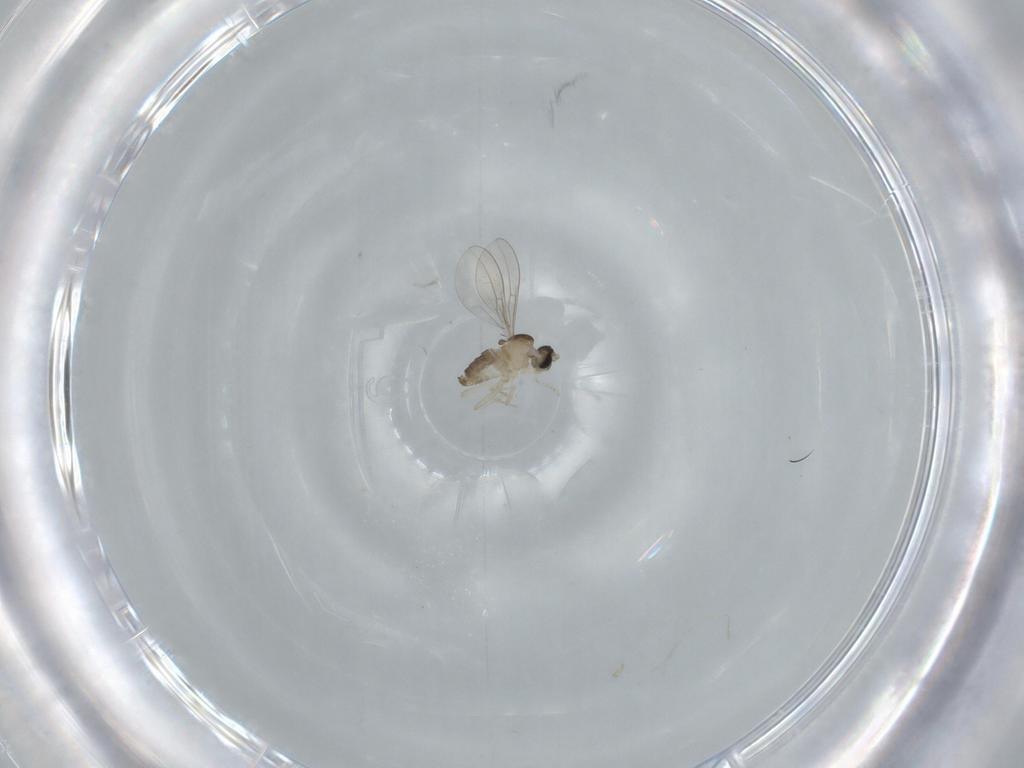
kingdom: Animalia
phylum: Arthropoda
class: Insecta
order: Diptera
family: Cecidomyiidae
